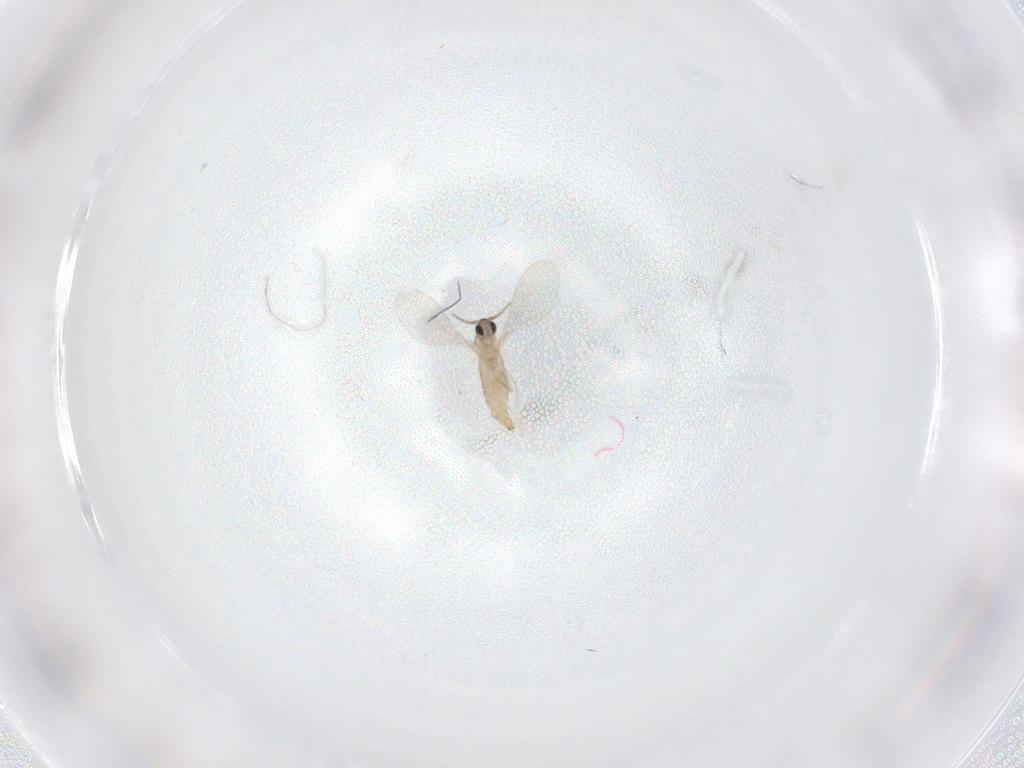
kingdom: Animalia
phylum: Arthropoda
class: Insecta
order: Diptera
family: Cecidomyiidae
